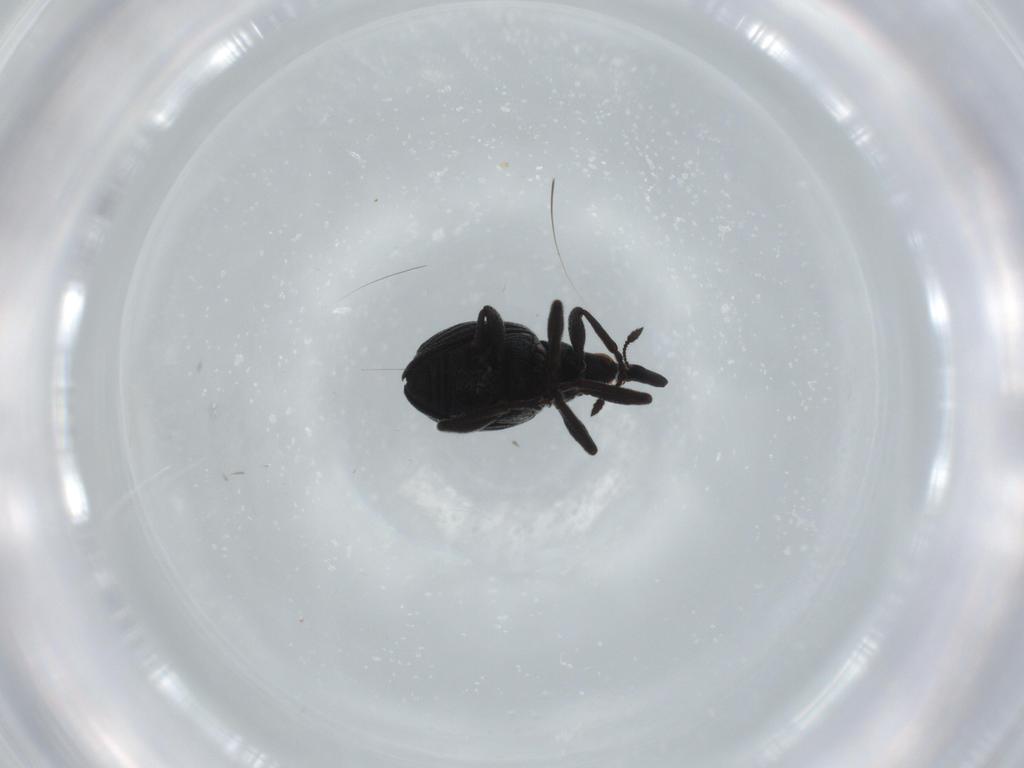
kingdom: Animalia
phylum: Arthropoda
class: Insecta
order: Coleoptera
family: Brentidae
